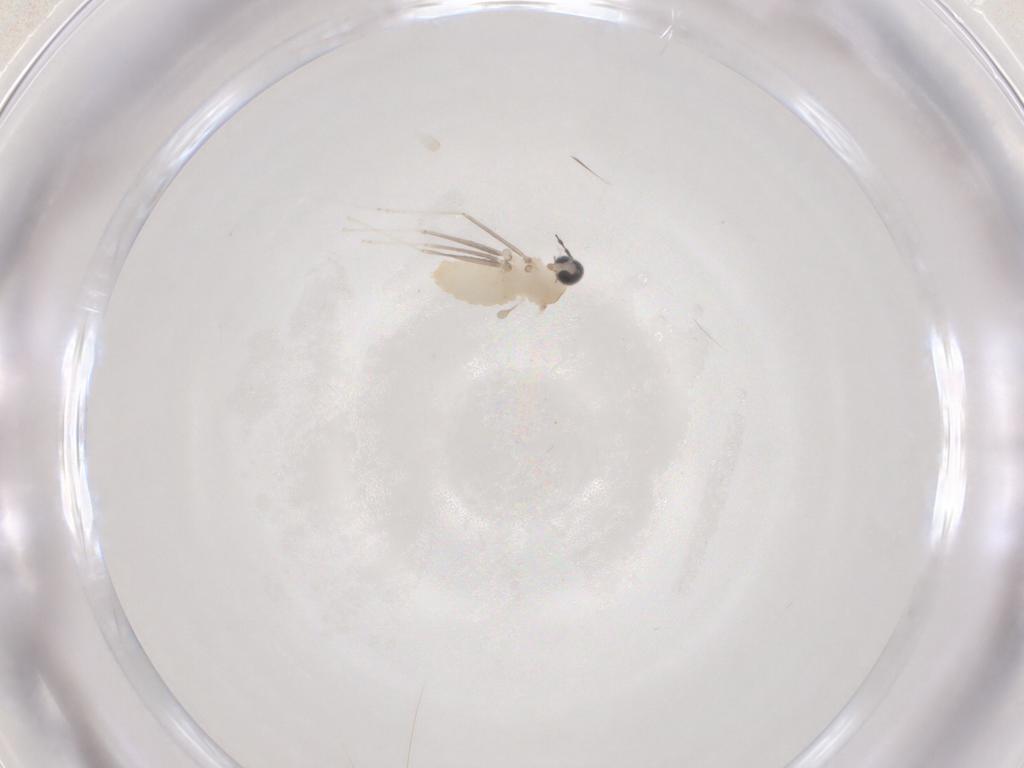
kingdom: Animalia
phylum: Arthropoda
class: Insecta
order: Diptera
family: Cecidomyiidae
